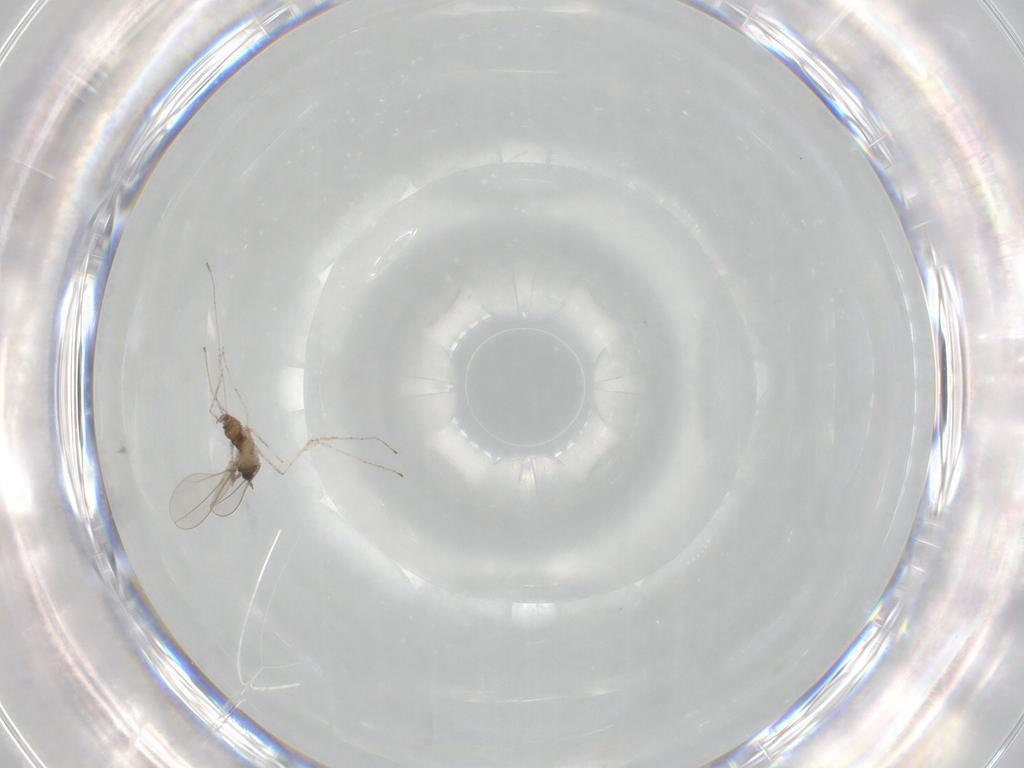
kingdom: Animalia
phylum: Arthropoda
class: Insecta
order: Diptera
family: Cecidomyiidae
